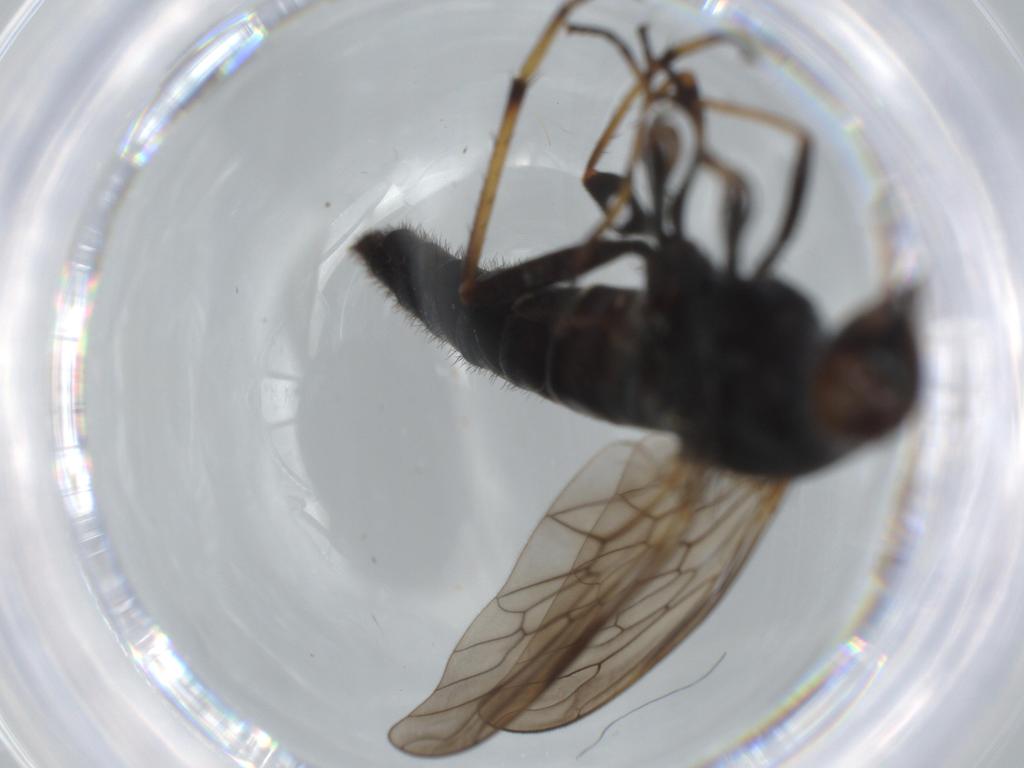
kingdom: Animalia
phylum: Arthropoda
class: Insecta
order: Diptera
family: Therevidae
